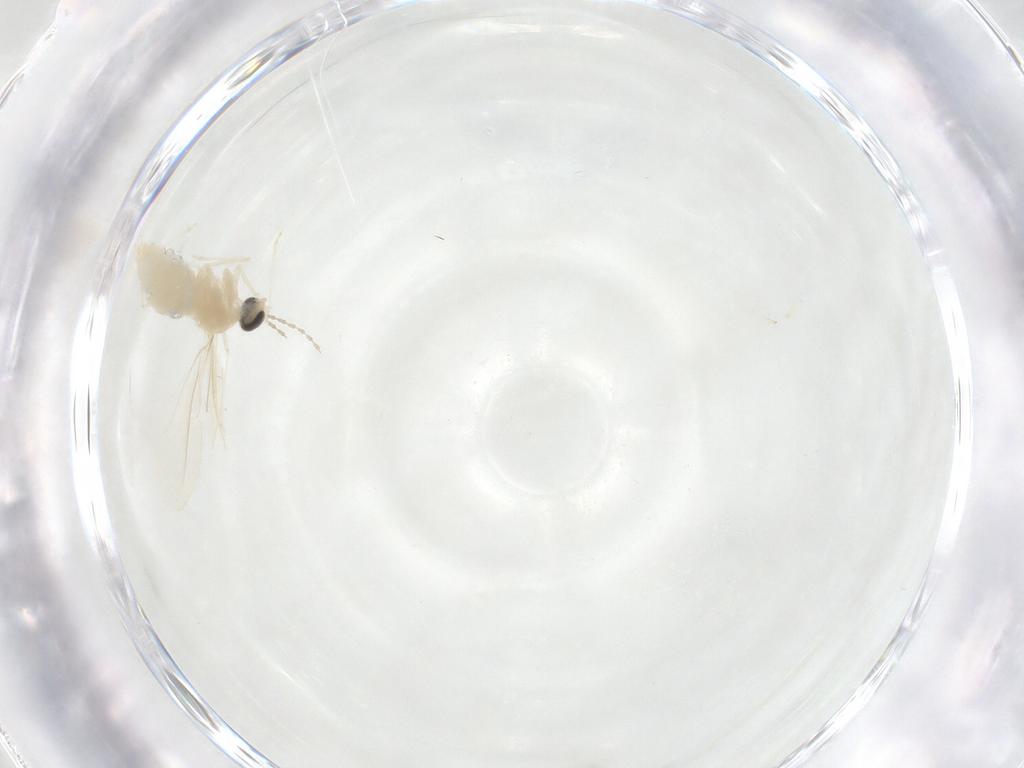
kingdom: Animalia
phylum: Arthropoda
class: Insecta
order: Diptera
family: Cecidomyiidae
